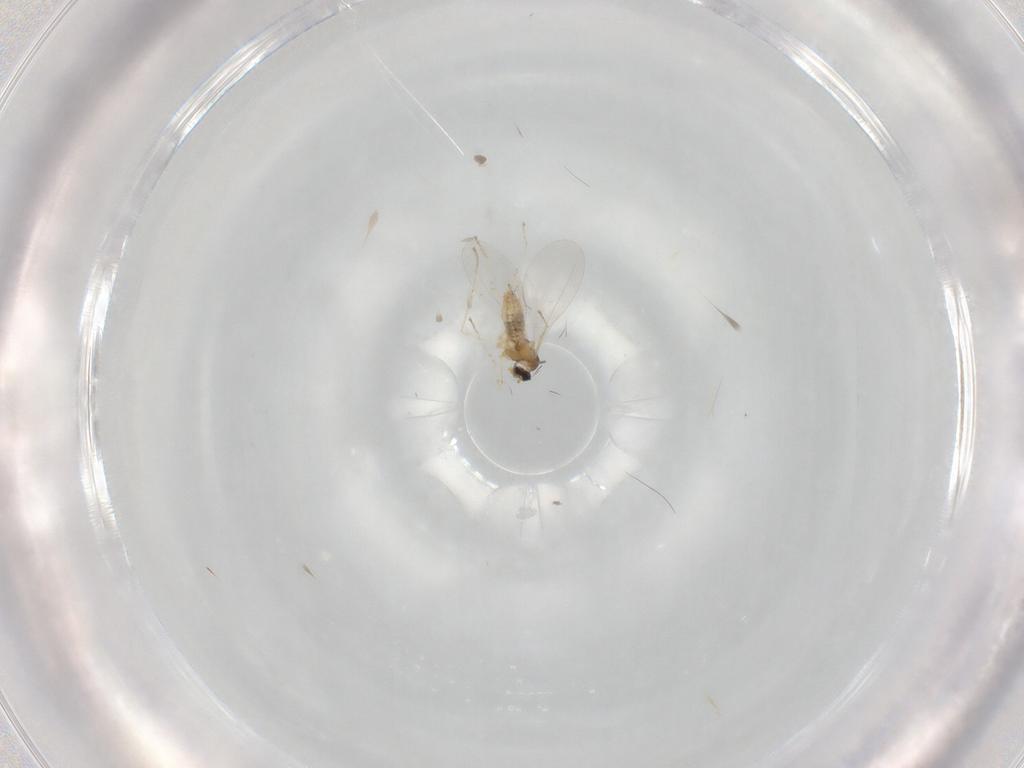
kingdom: Animalia
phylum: Arthropoda
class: Insecta
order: Diptera
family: Cecidomyiidae
